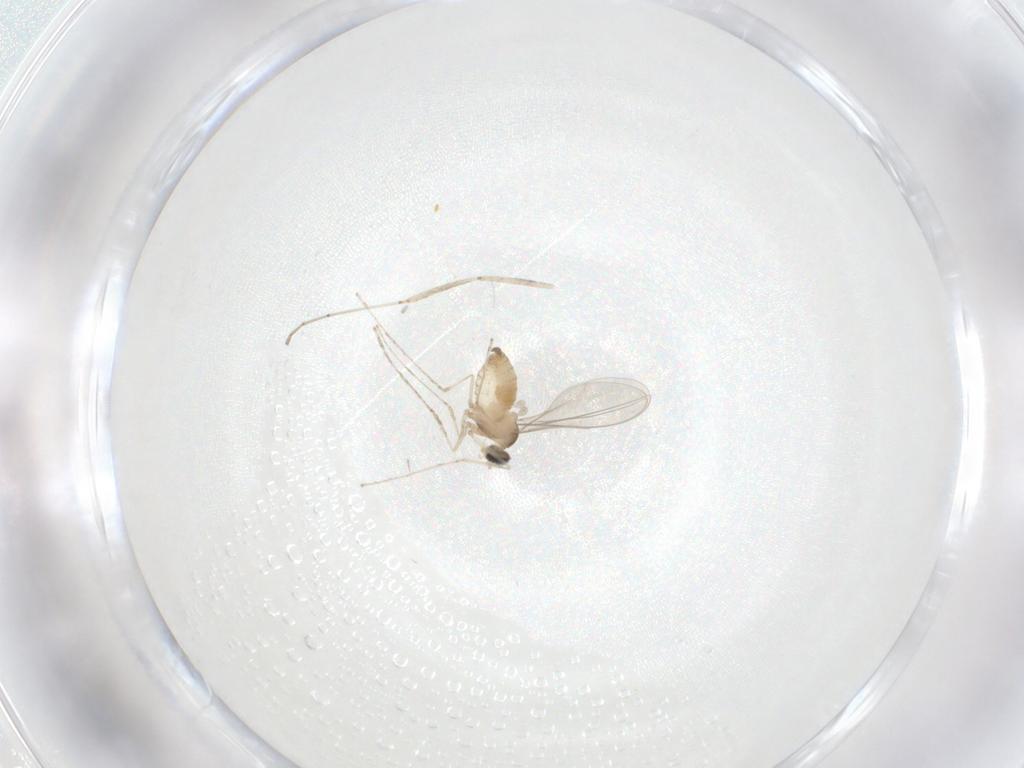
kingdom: Animalia
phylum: Arthropoda
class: Insecta
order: Diptera
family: Cecidomyiidae
